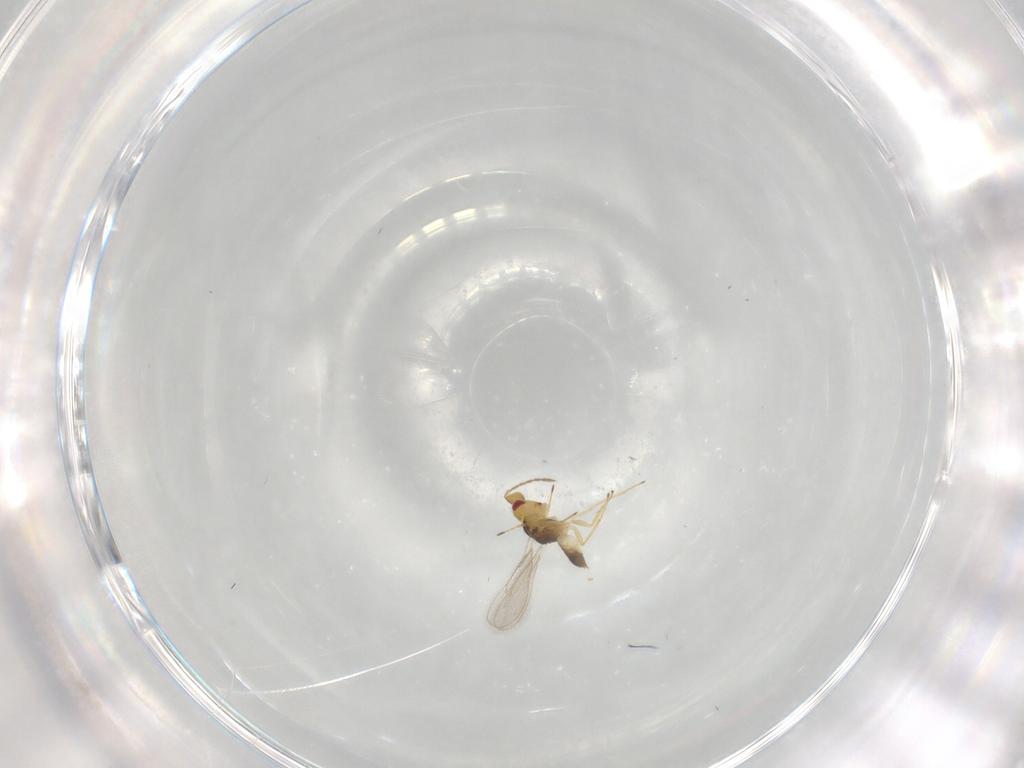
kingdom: Animalia
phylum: Arthropoda
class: Insecta
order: Hymenoptera
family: Eulophidae
